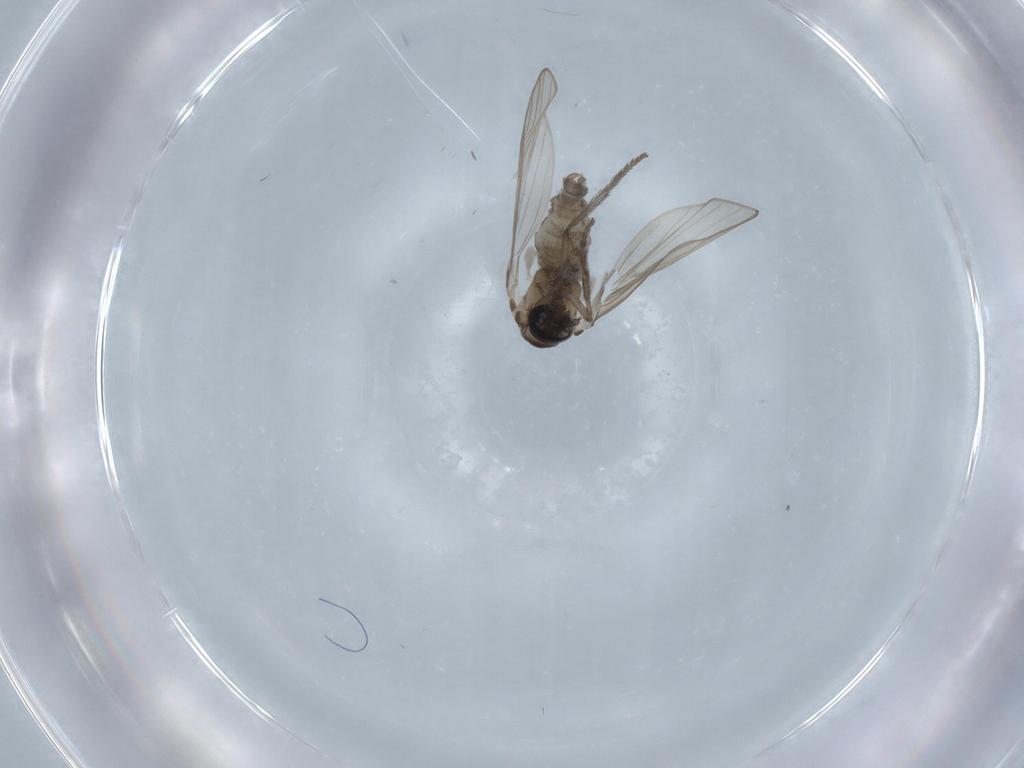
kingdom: Animalia
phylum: Arthropoda
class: Insecta
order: Diptera
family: Psychodidae
